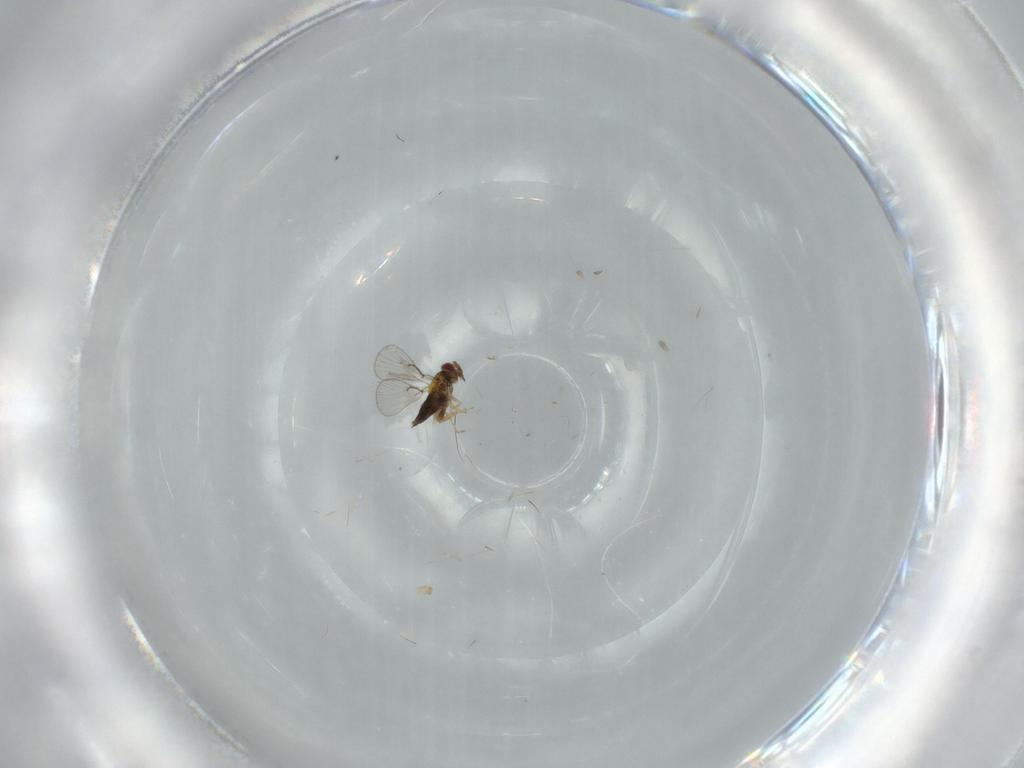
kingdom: Animalia
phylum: Arthropoda
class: Insecta
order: Hymenoptera
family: Trichogrammatidae
